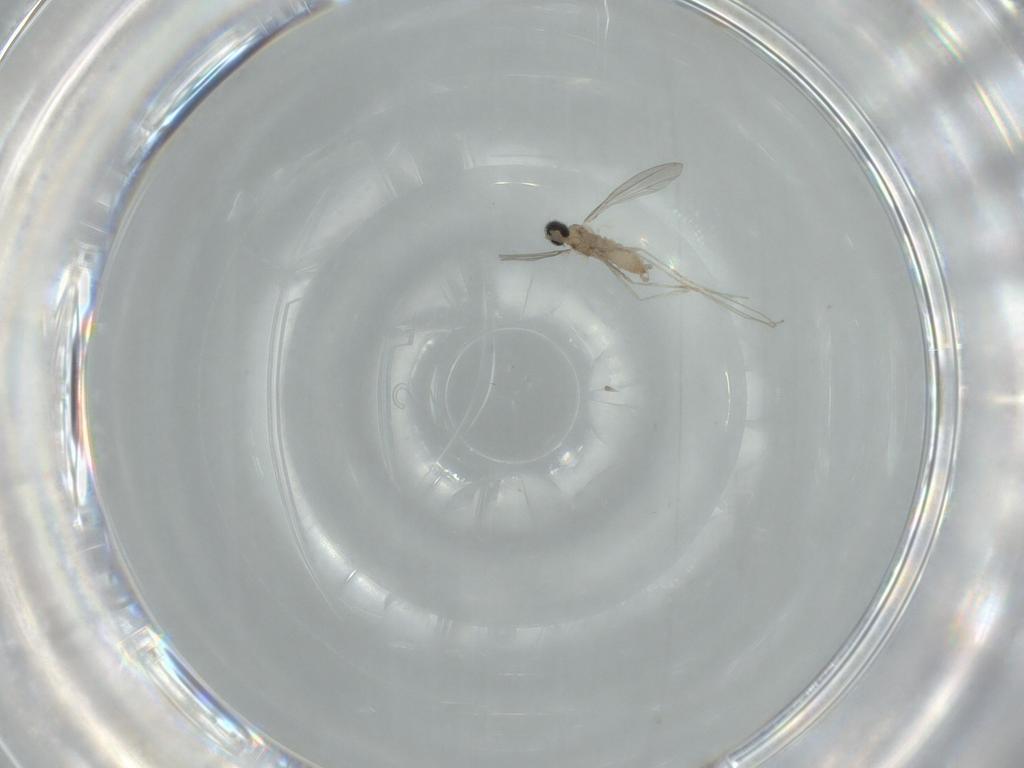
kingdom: Animalia
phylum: Arthropoda
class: Insecta
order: Diptera
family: Cecidomyiidae
